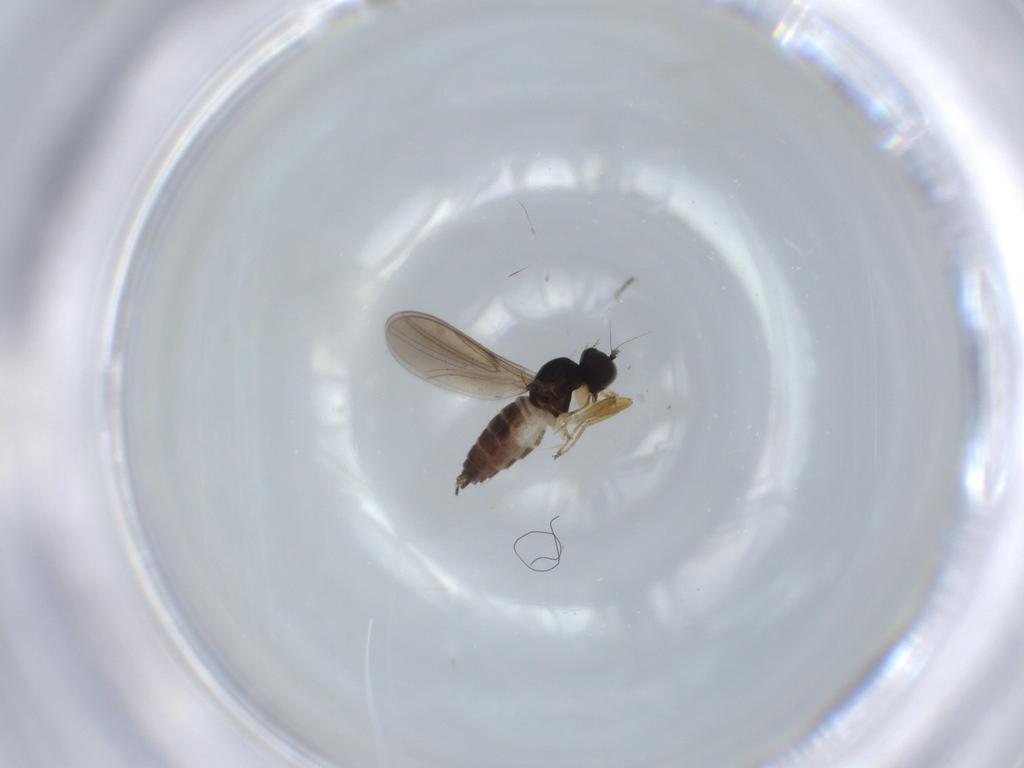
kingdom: Animalia
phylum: Arthropoda
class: Insecta
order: Diptera
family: Hybotidae
